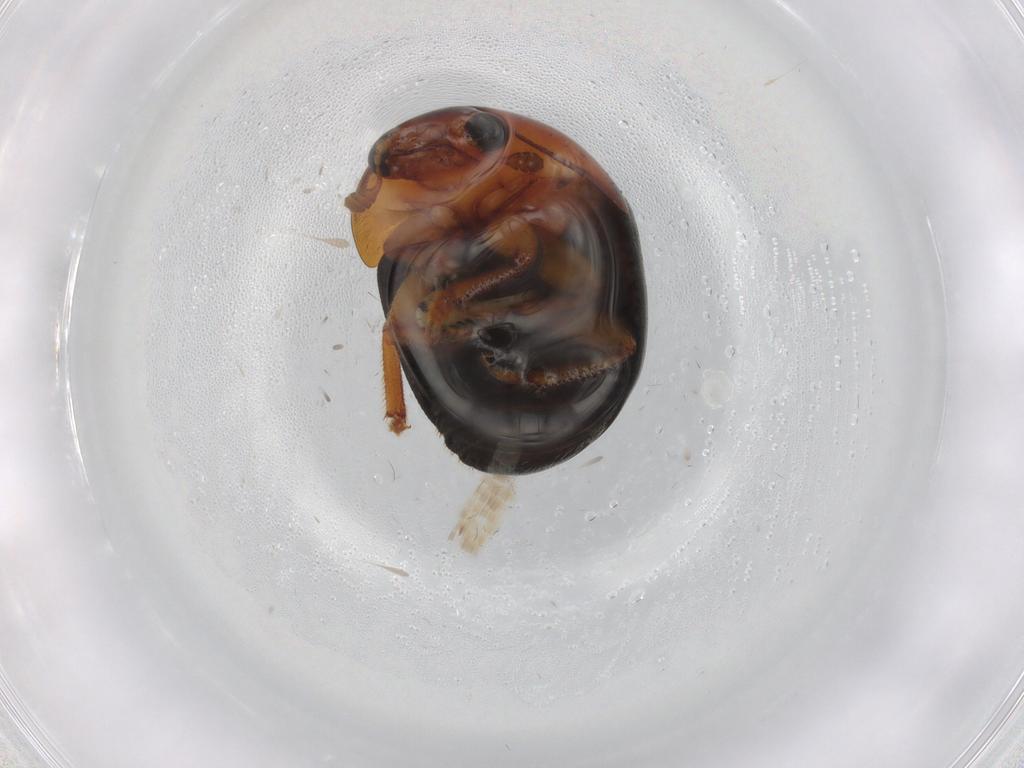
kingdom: Animalia
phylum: Arthropoda
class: Insecta
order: Coleoptera
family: Nitidulidae
